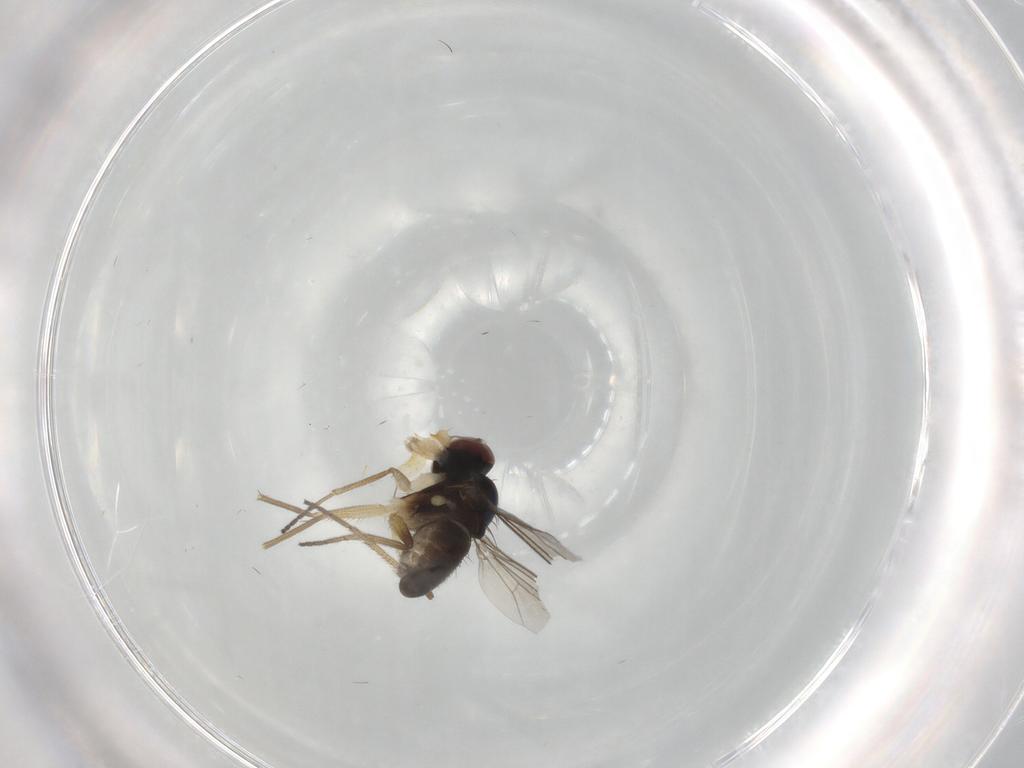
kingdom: Animalia
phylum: Arthropoda
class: Insecta
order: Diptera
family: Dolichopodidae
